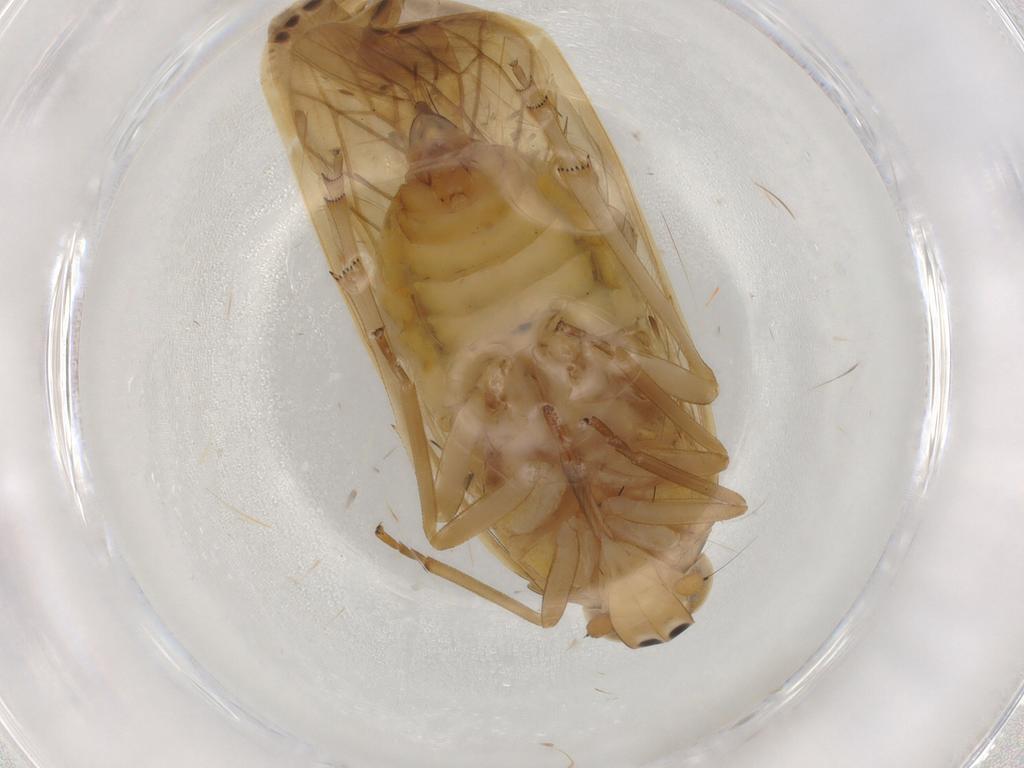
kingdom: Animalia
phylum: Arthropoda
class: Insecta
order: Hemiptera
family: Achilidae
